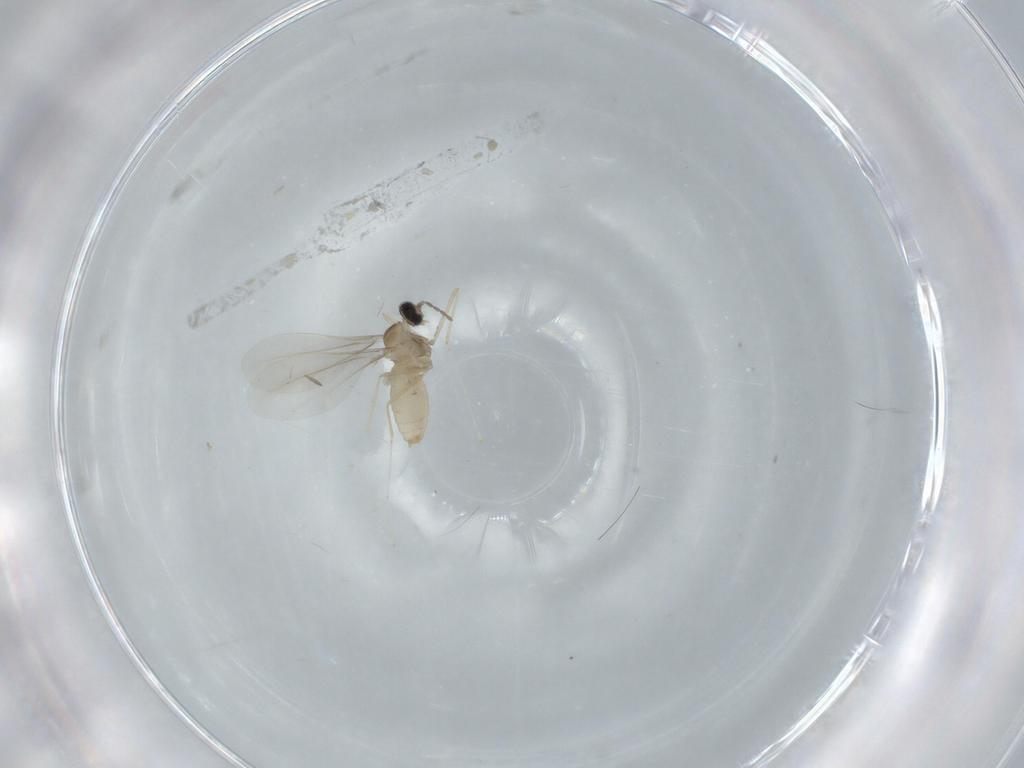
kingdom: Animalia
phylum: Arthropoda
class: Insecta
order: Diptera
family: Cecidomyiidae
